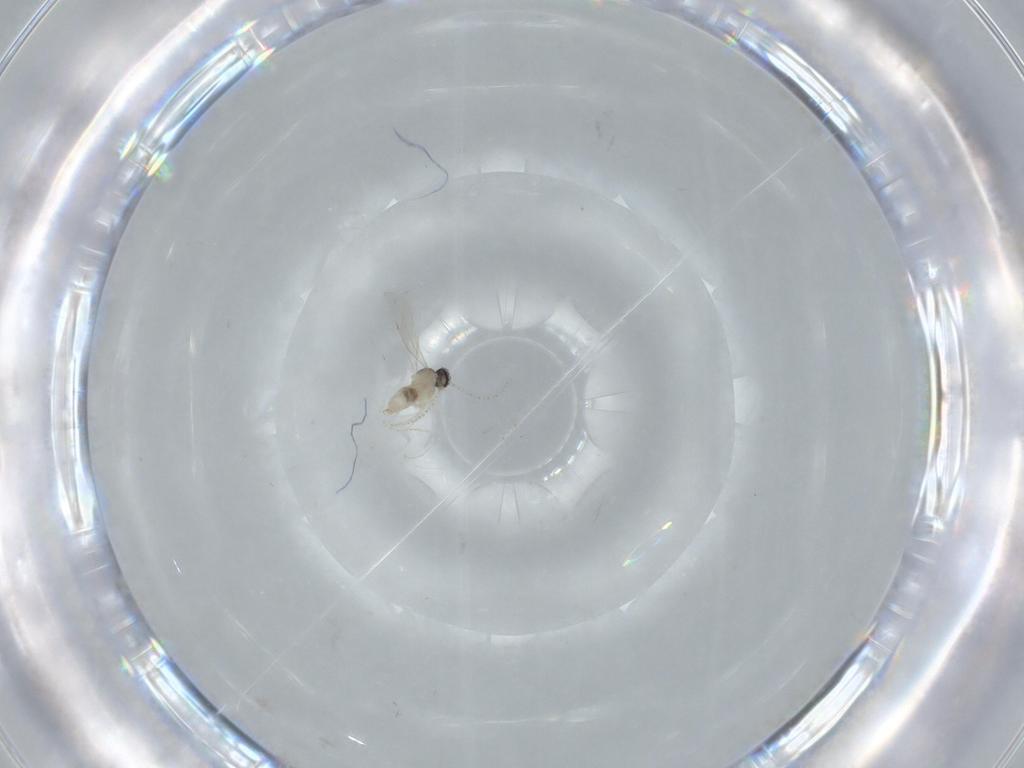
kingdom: Animalia
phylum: Arthropoda
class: Insecta
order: Diptera
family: Cecidomyiidae
